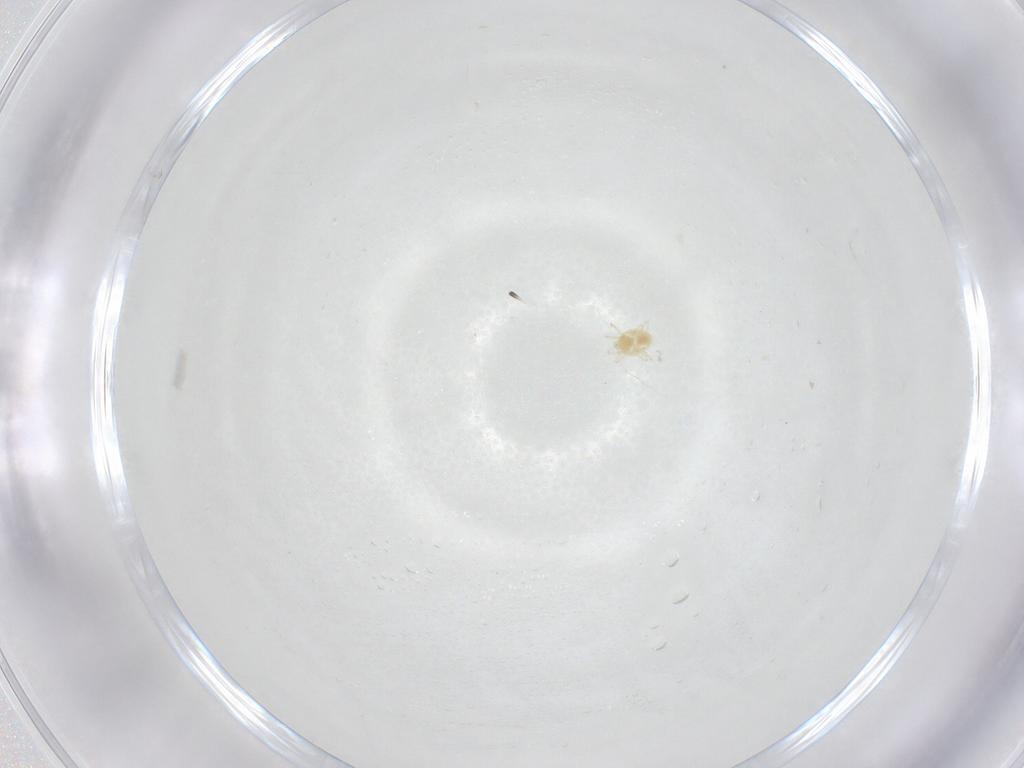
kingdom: Animalia
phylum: Arthropoda
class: Arachnida
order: Trombidiformes
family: Tetranychidae
